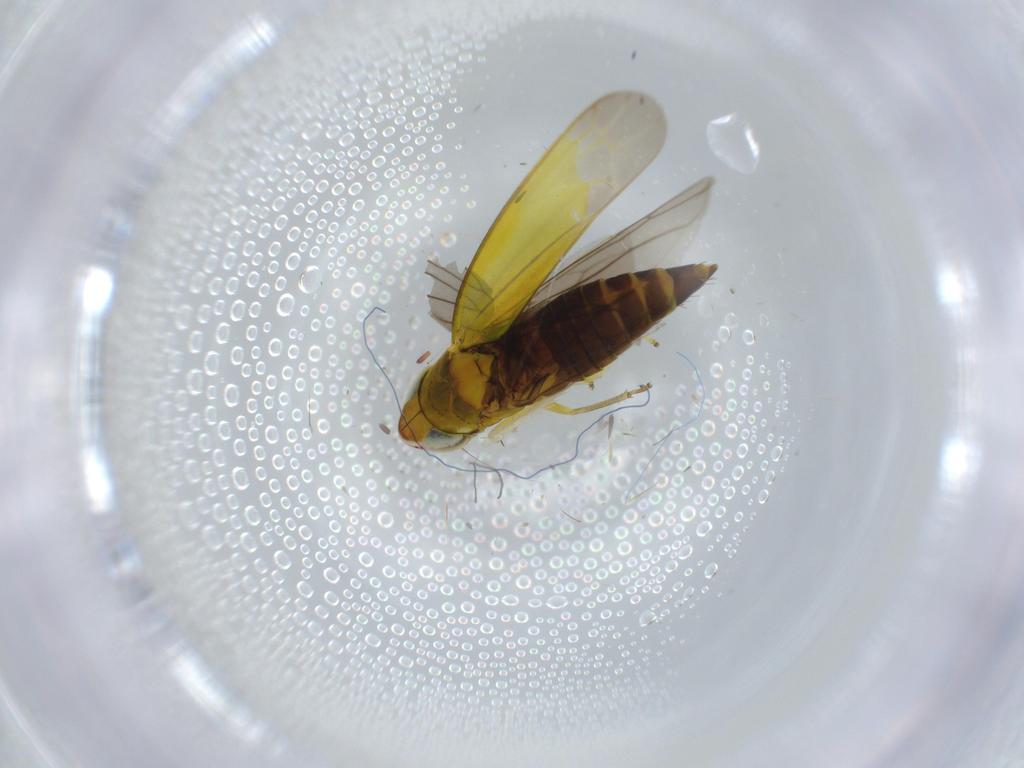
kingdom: Animalia
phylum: Arthropoda
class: Insecta
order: Hemiptera
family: Cicadellidae
